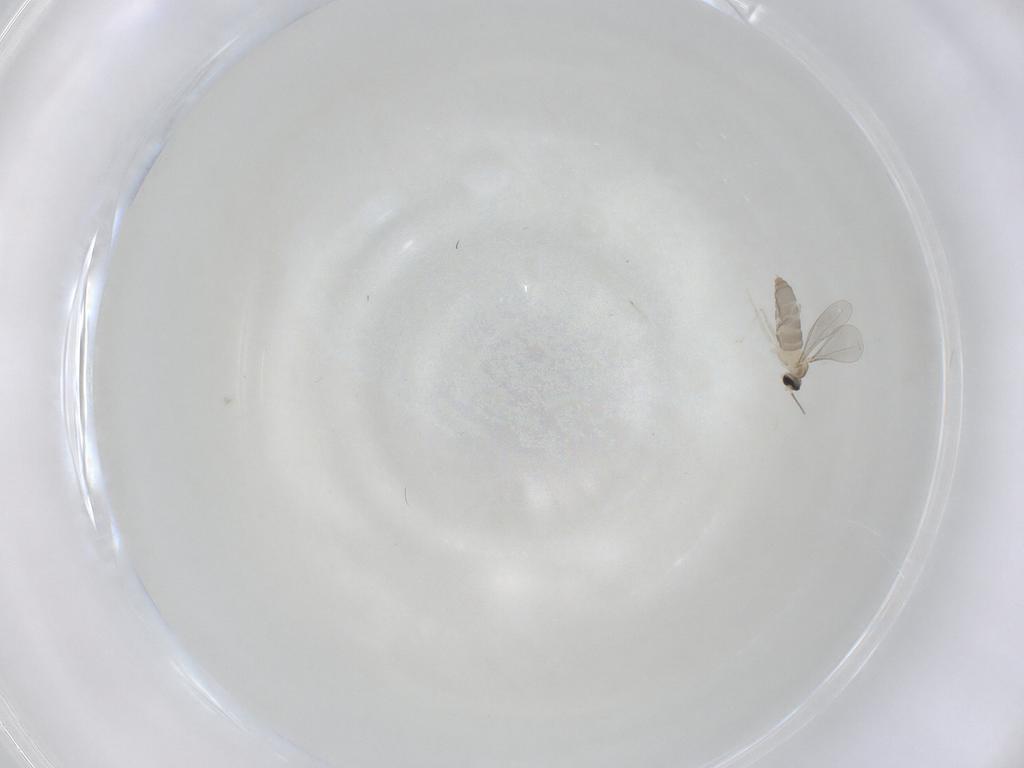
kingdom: Animalia
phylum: Arthropoda
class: Insecta
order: Diptera
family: Cecidomyiidae
